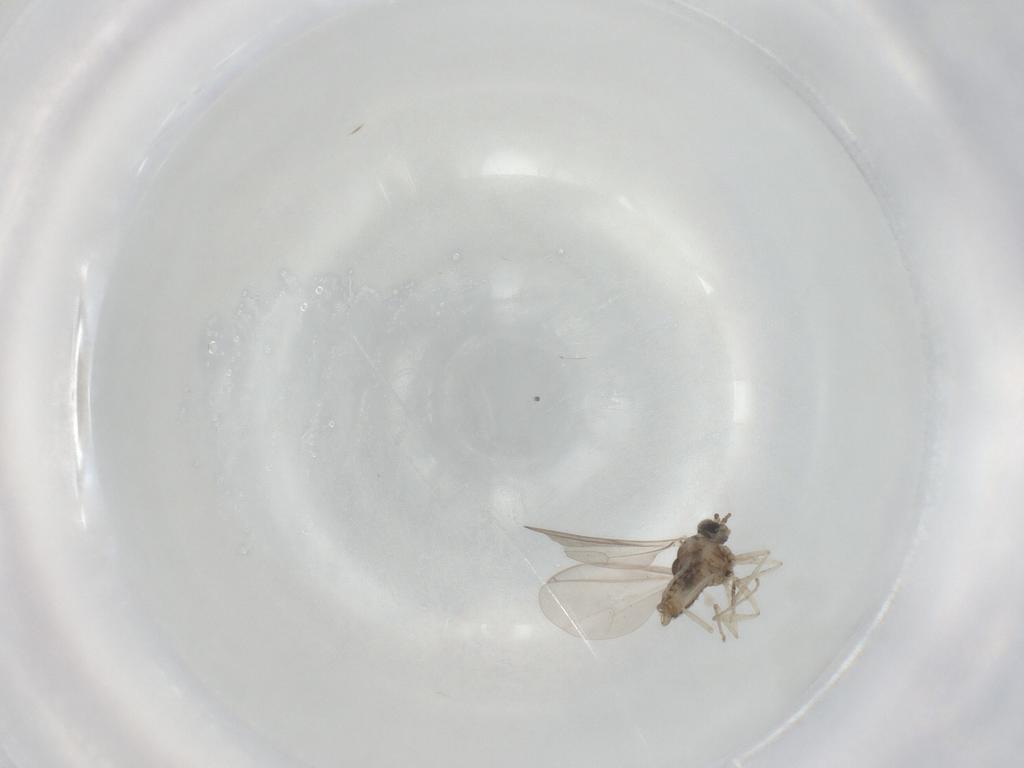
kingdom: Animalia
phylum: Arthropoda
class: Insecta
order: Diptera
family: Cecidomyiidae
